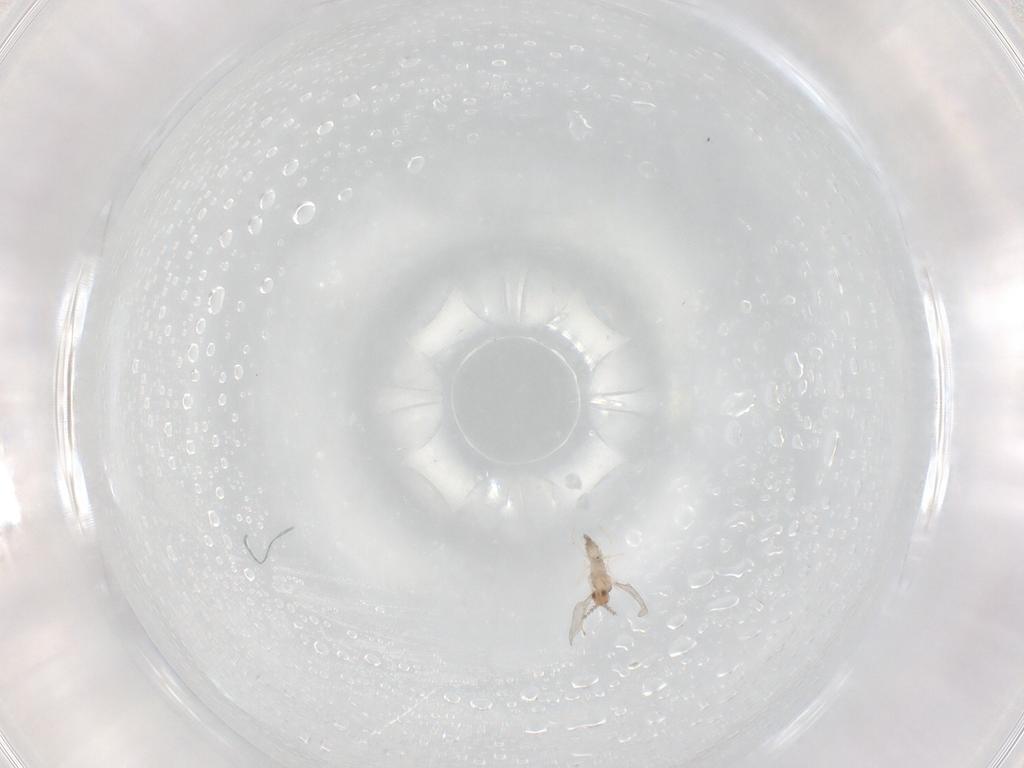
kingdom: Animalia
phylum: Arthropoda
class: Insecta
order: Diptera
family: Cecidomyiidae
